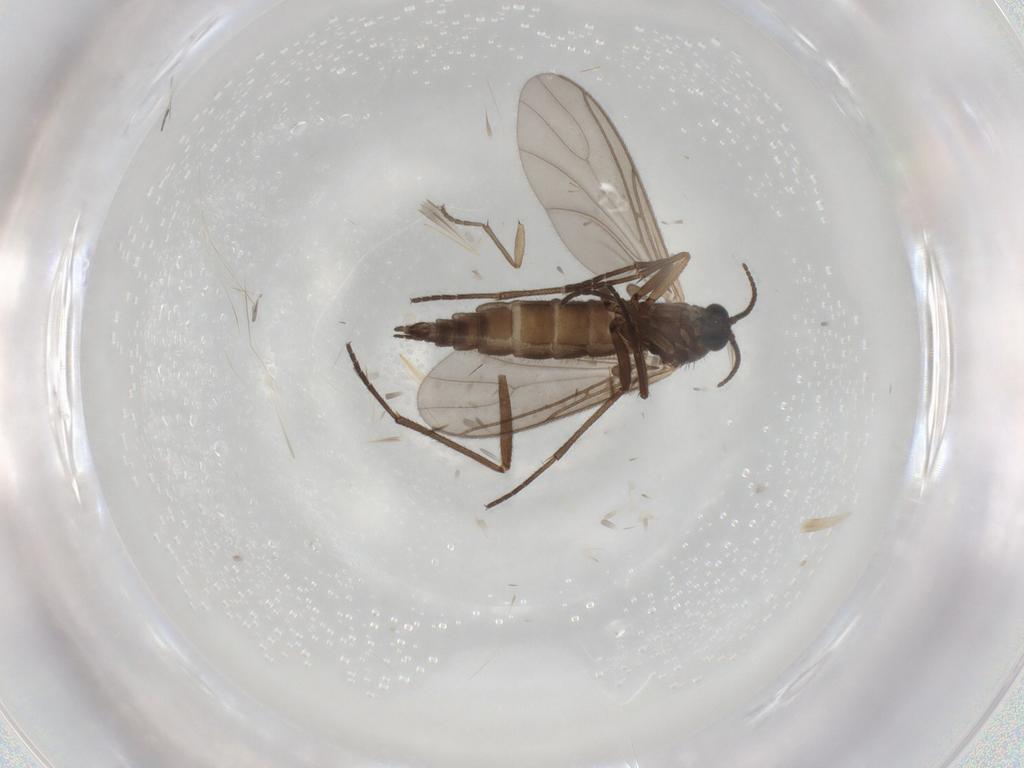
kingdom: Animalia
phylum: Arthropoda
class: Insecta
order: Diptera
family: Sciaridae
